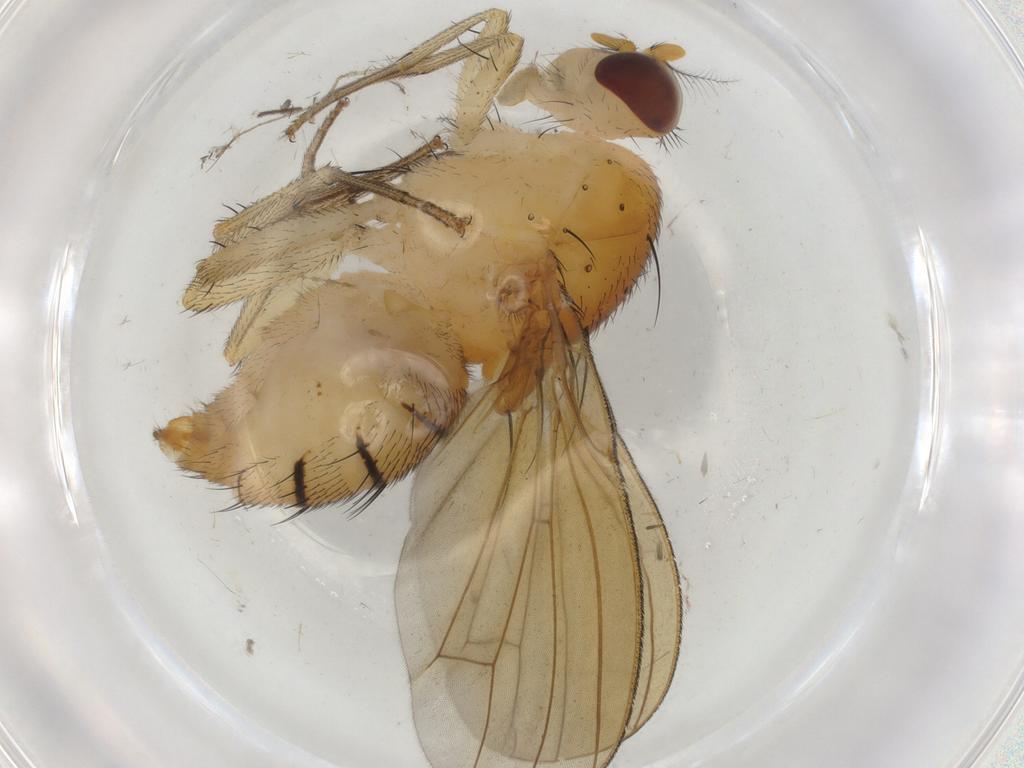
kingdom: Animalia
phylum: Arthropoda
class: Insecta
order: Diptera
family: Cecidomyiidae
